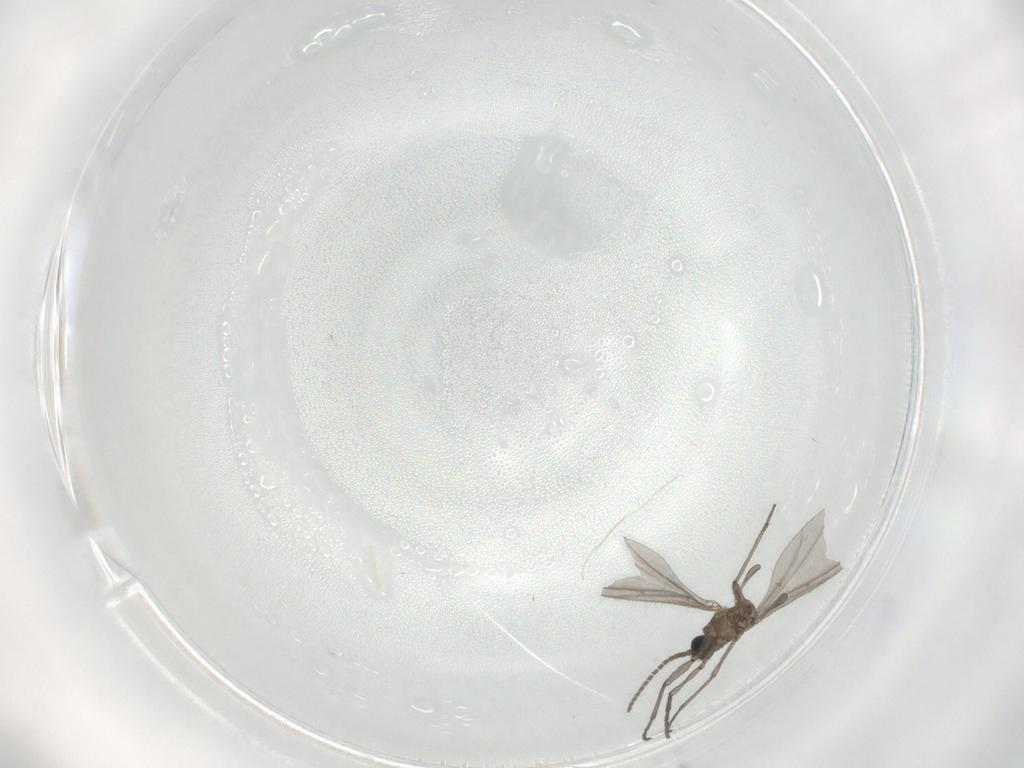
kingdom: Animalia
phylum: Arthropoda
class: Insecta
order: Diptera
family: Sciaridae
